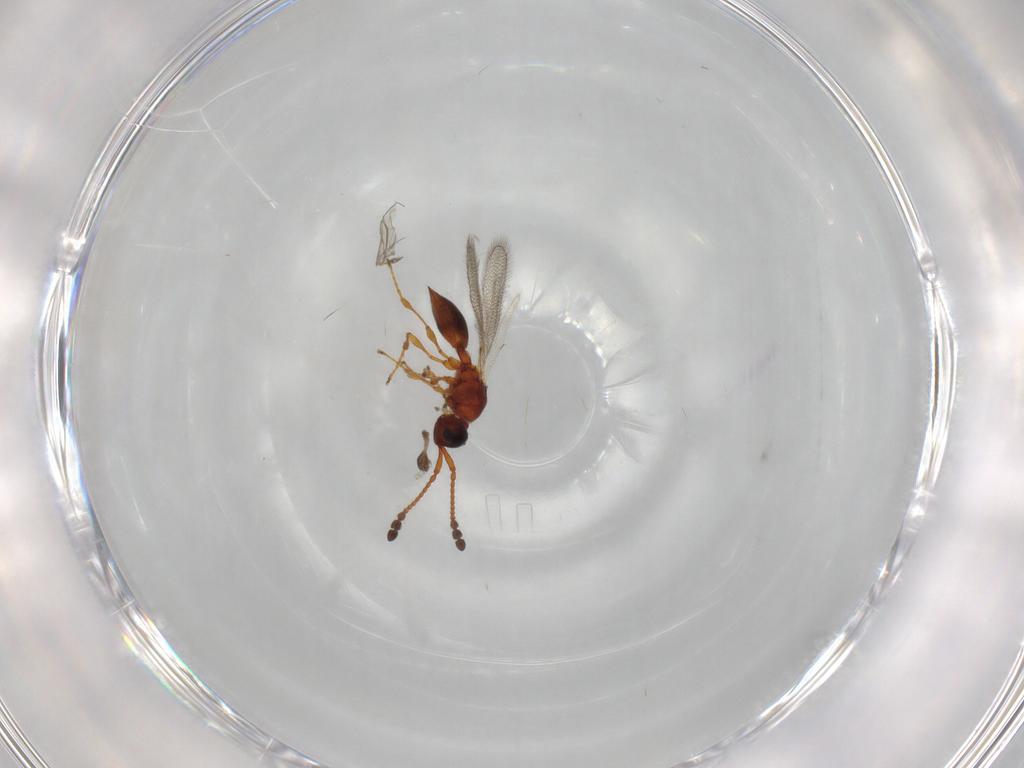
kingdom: Animalia
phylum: Arthropoda
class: Insecta
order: Hymenoptera
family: Diapriidae
